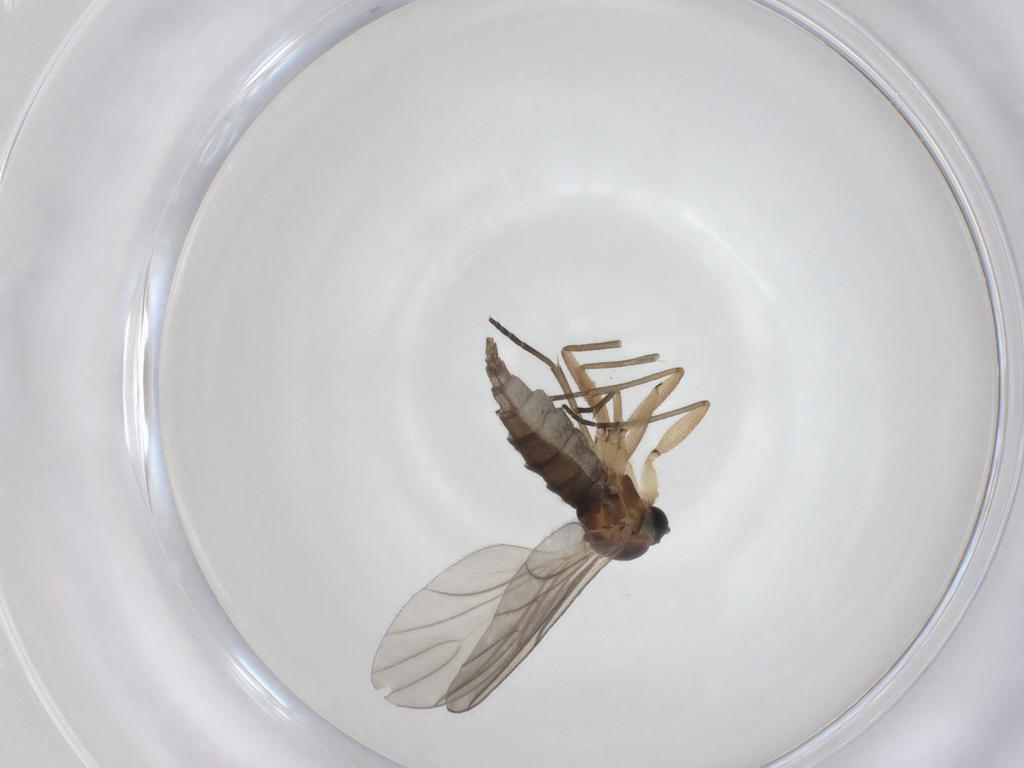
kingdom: Animalia
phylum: Arthropoda
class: Insecta
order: Diptera
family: Sciaridae
